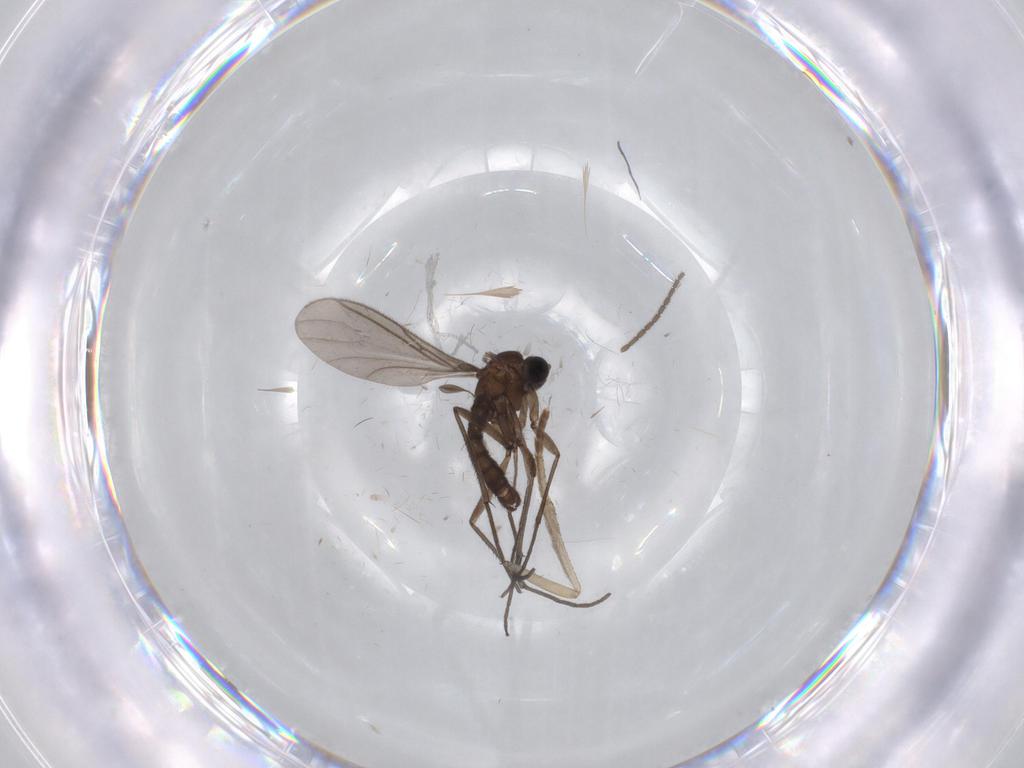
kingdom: Animalia
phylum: Arthropoda
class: Insecta
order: Diptera
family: Sciaridae
